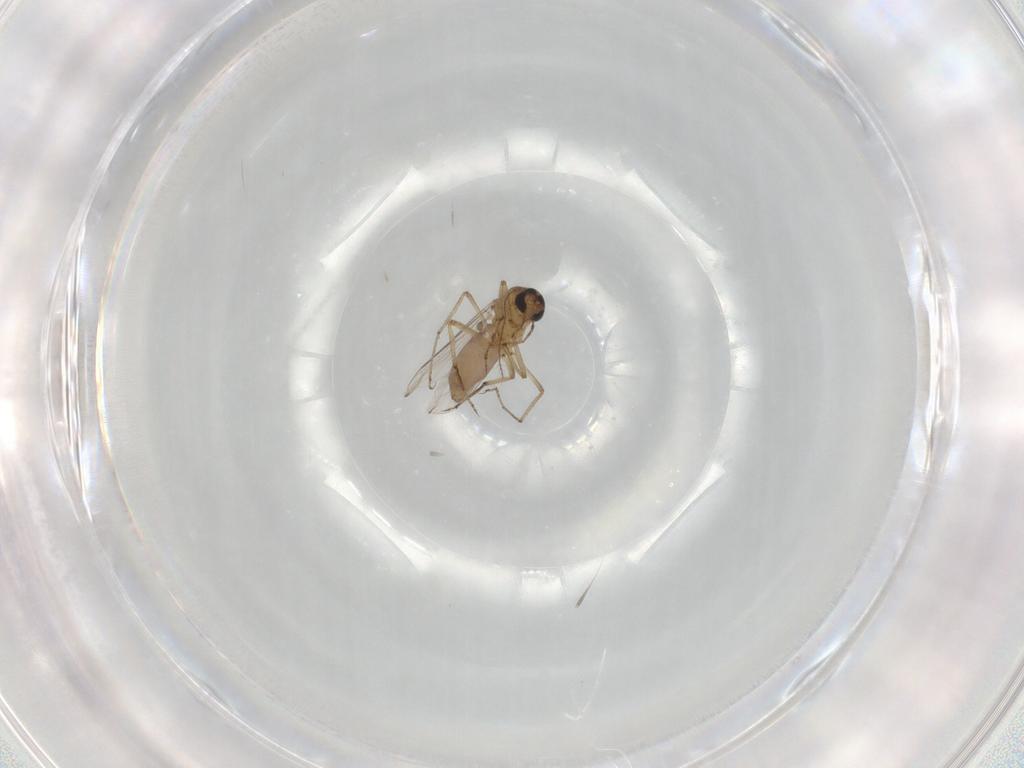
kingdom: Animalia
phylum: Arthropoda
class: Insecta
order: Diptera
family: Ceratopogonidae
